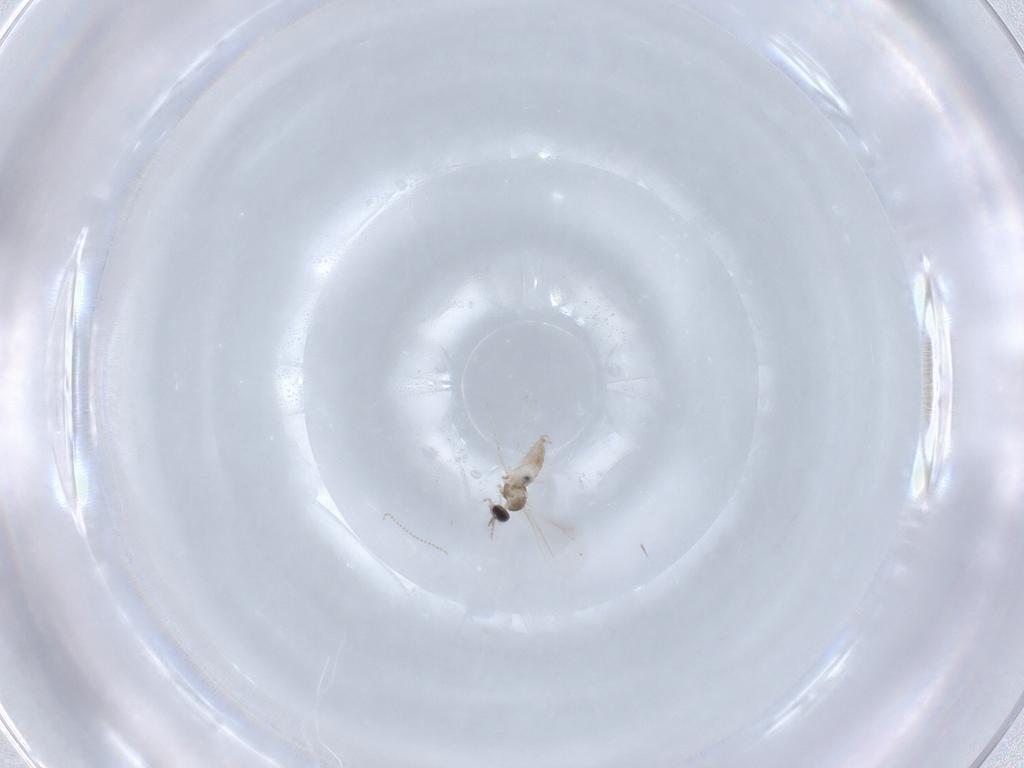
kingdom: Animalia
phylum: Arthropoda
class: Insecta
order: Diptera
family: Cecidomyiidae
